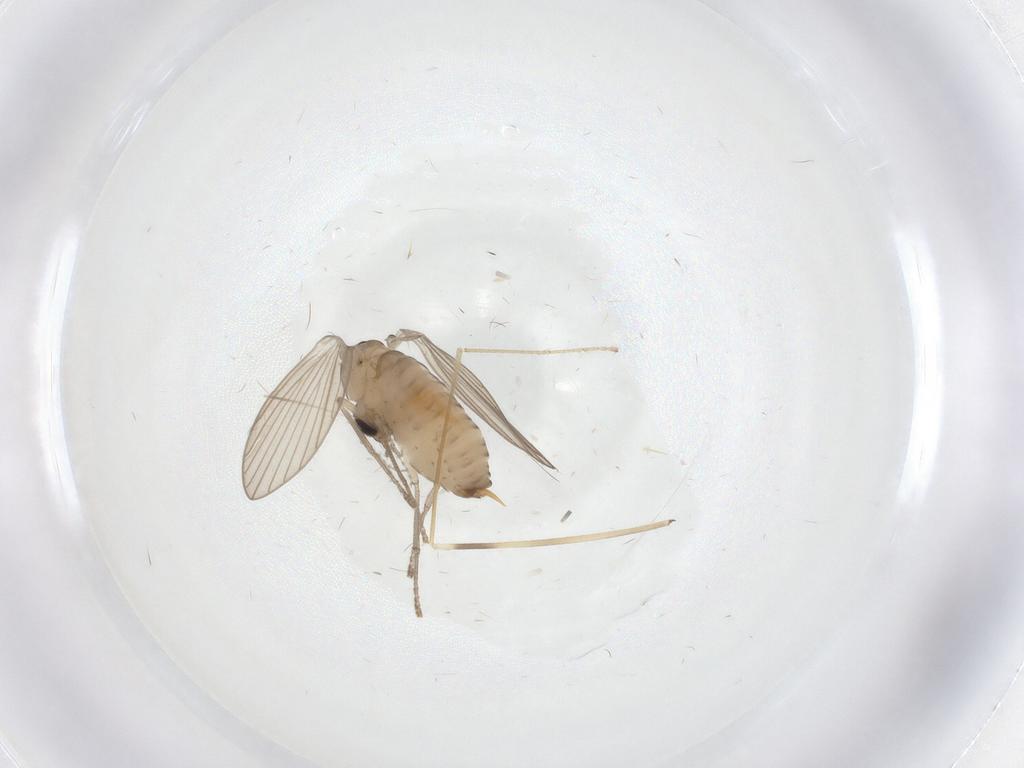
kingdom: Animalia
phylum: Arthropoda
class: Insecta
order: Diptera
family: Psychodidae
